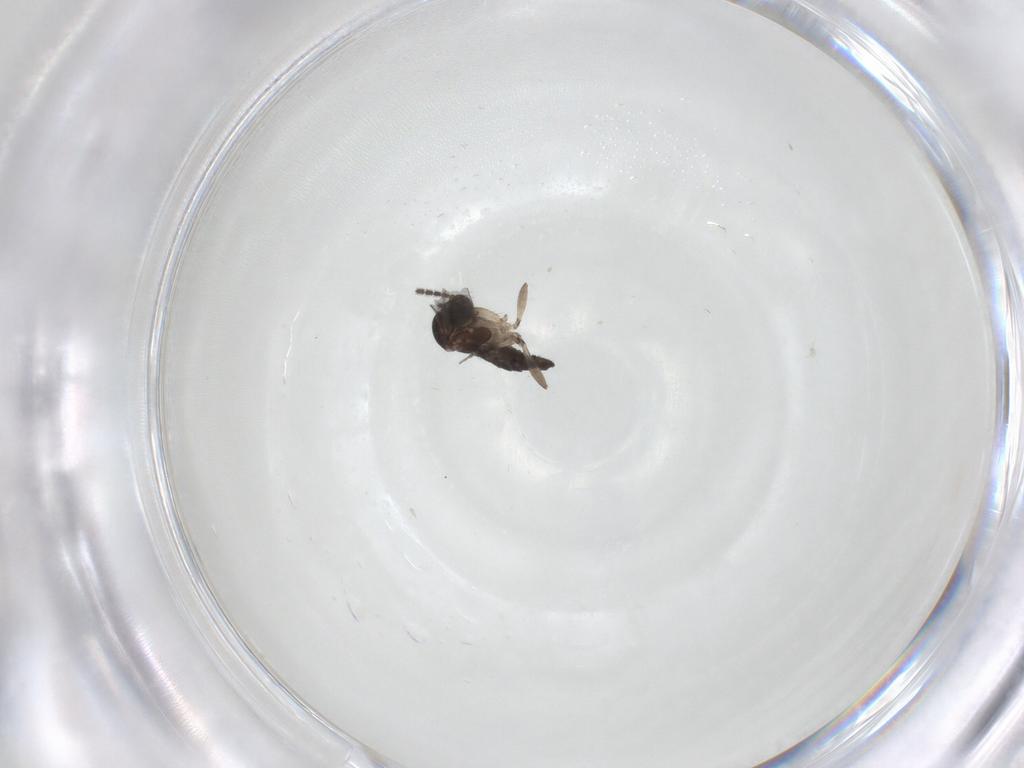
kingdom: Animalia
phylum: Arthropoda
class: Insecta
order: Diptera
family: Sciaridae
